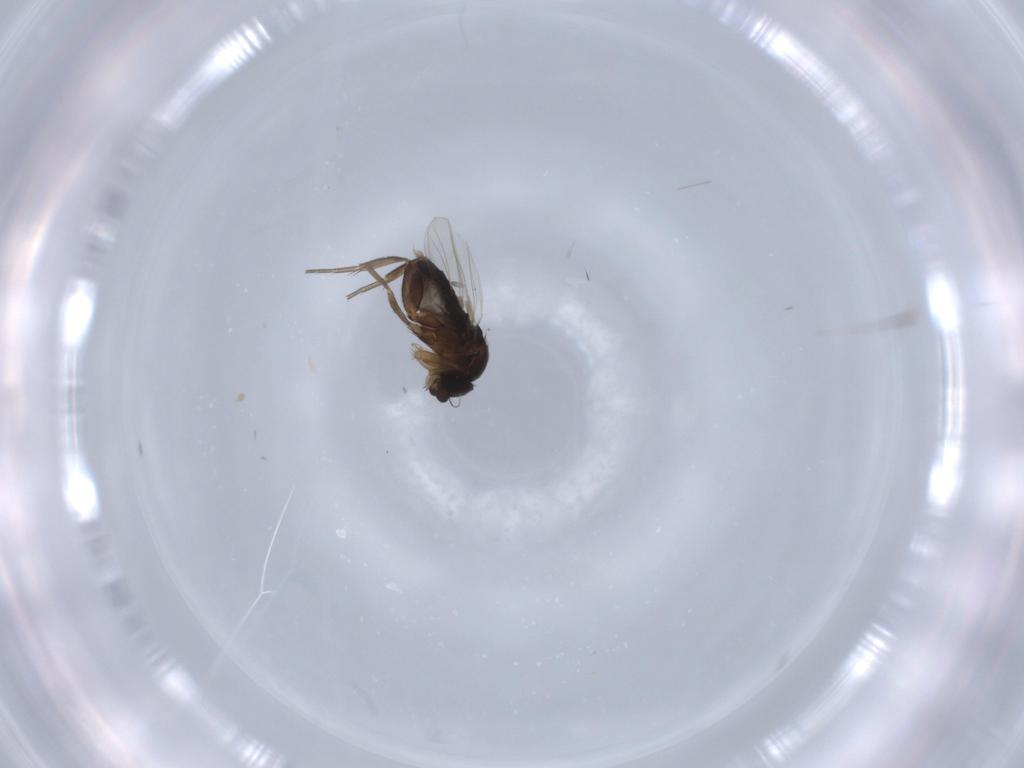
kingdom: Animalia
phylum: Arthropoda
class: Insecta
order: Diptera
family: Phoridae
